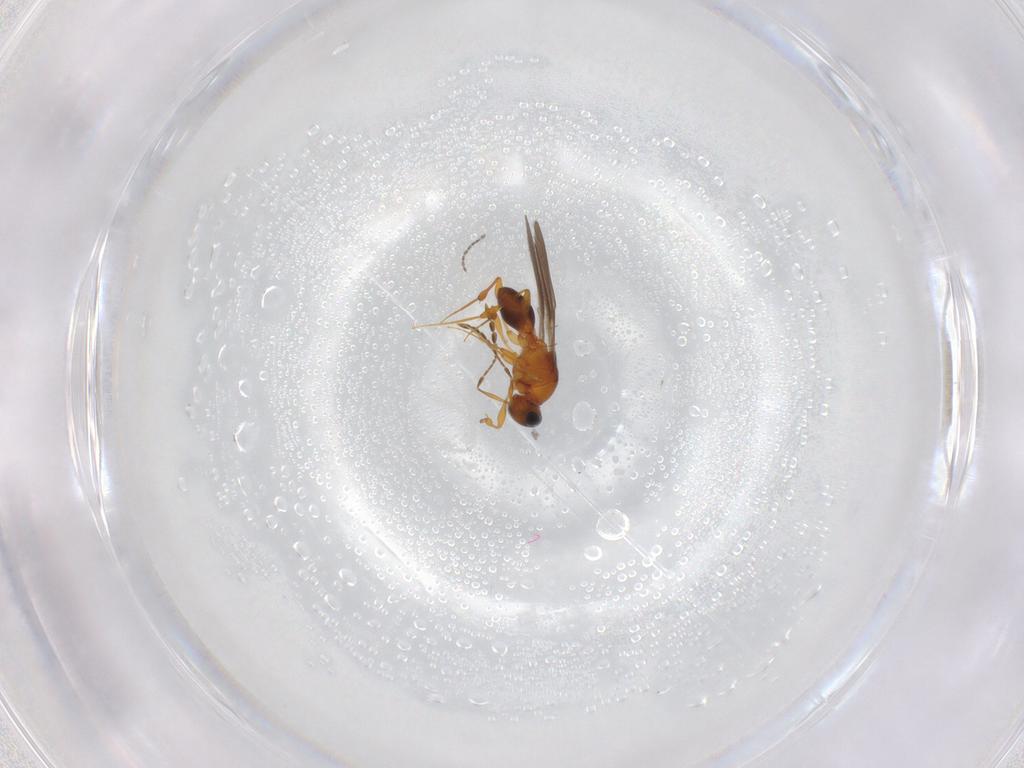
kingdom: Animalia
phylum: Arthropoda
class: Insecta
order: Hymenoptera
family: Platygastridae
